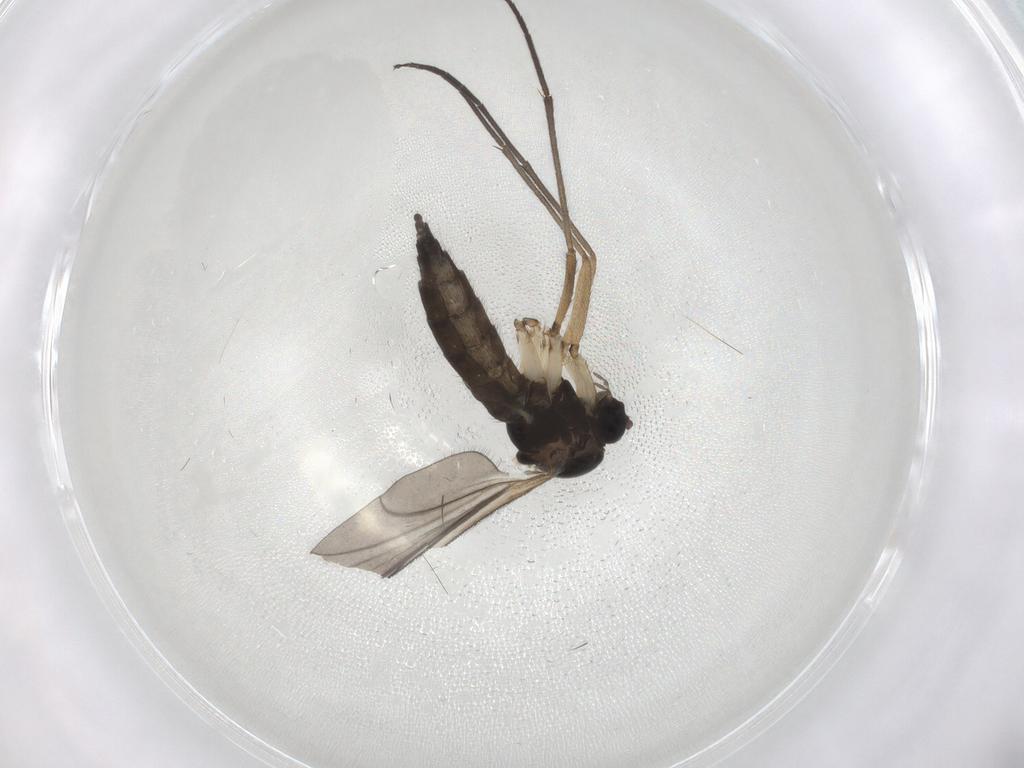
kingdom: Animalia
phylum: Arthropoda
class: Insecta
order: Diptera
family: Sciaridae
